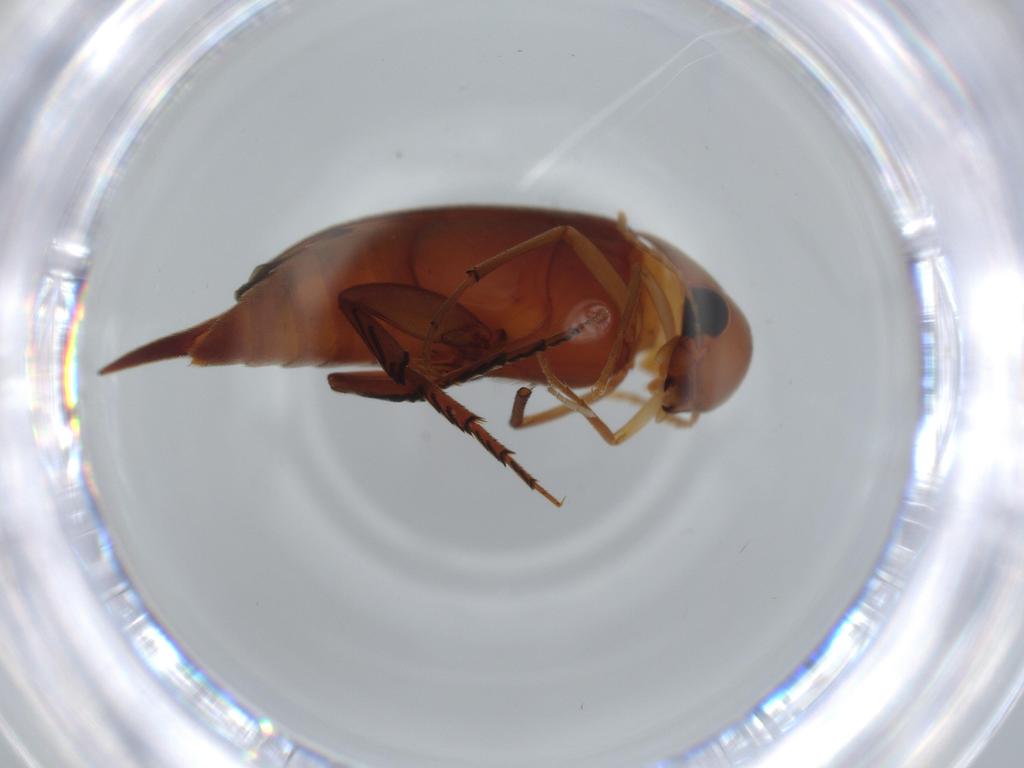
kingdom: Animalia
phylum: Arthropoda
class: Insecta
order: Coleoptera
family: Mordellidae
